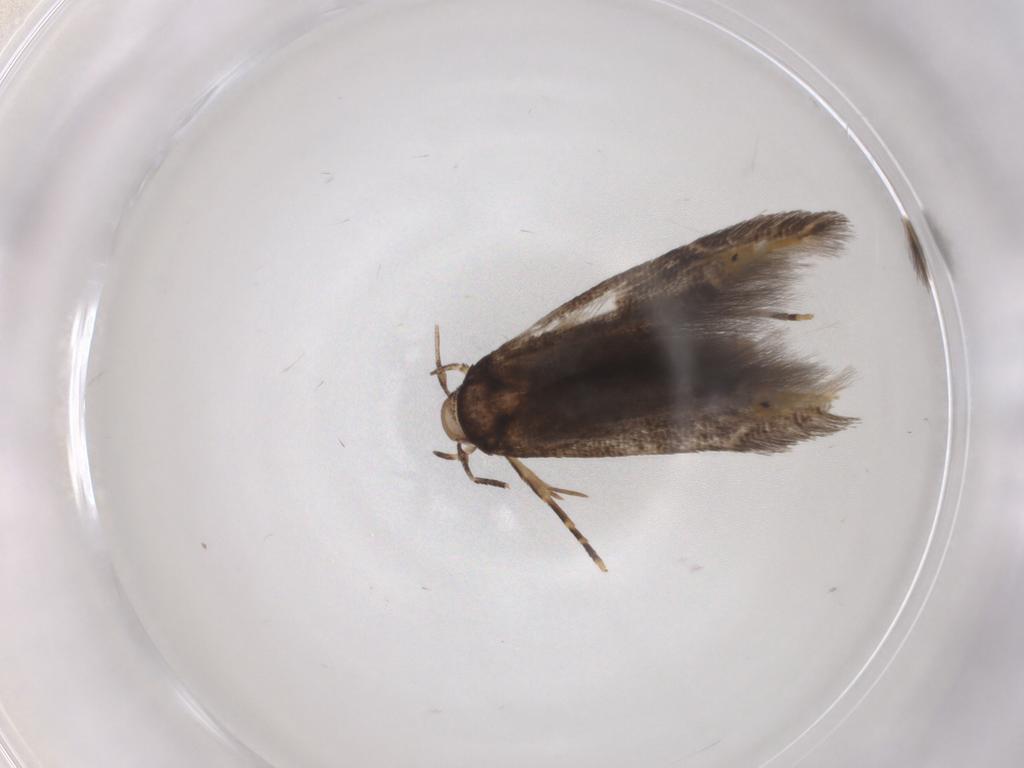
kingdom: Animalia
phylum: Arthropoda
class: Insecta
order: Lepidoptera
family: Cosmopterigidae
